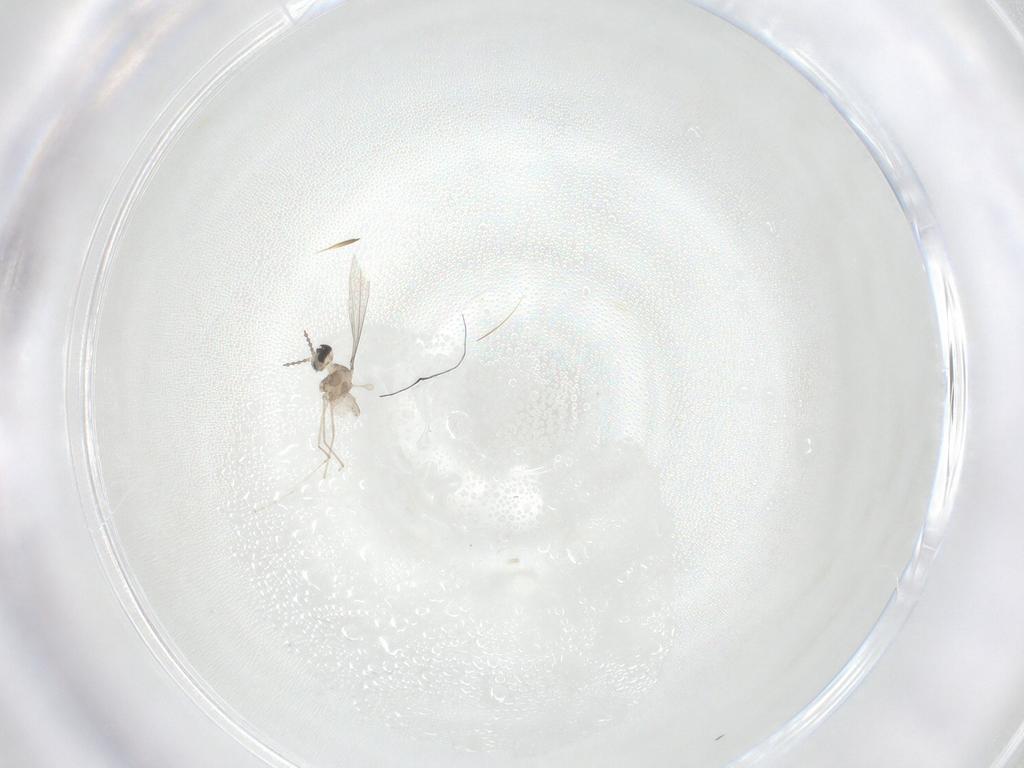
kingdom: Animalia
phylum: Arthropoda
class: Insecta
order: Diptera
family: Cecidomyiidae
